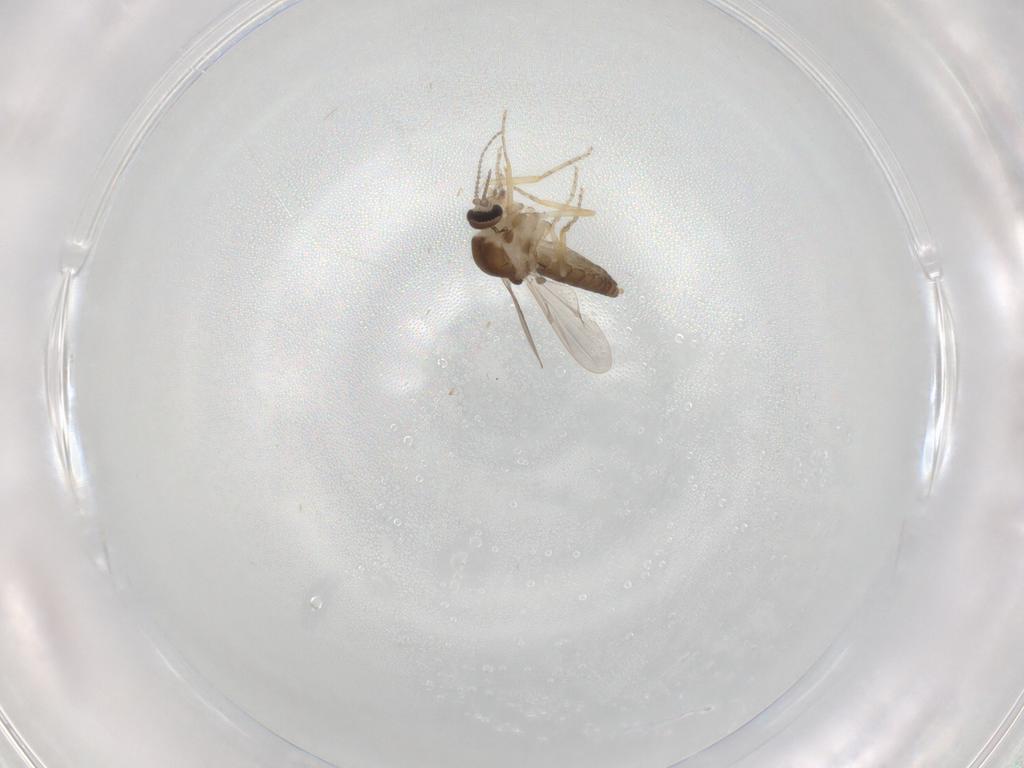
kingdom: Animalia
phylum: Arthropoda
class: Insecta
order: Diptera
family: Ceratopogonidae
